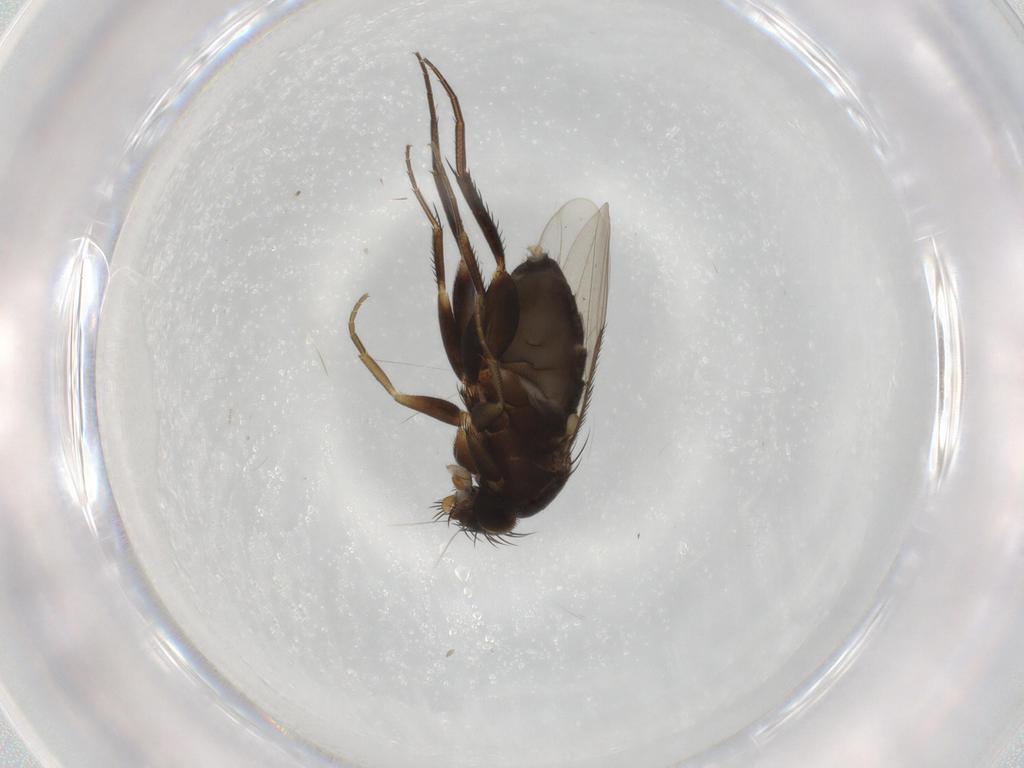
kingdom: Animalia
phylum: Arthropoda
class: Insecta
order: Diptera
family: Phoridae
